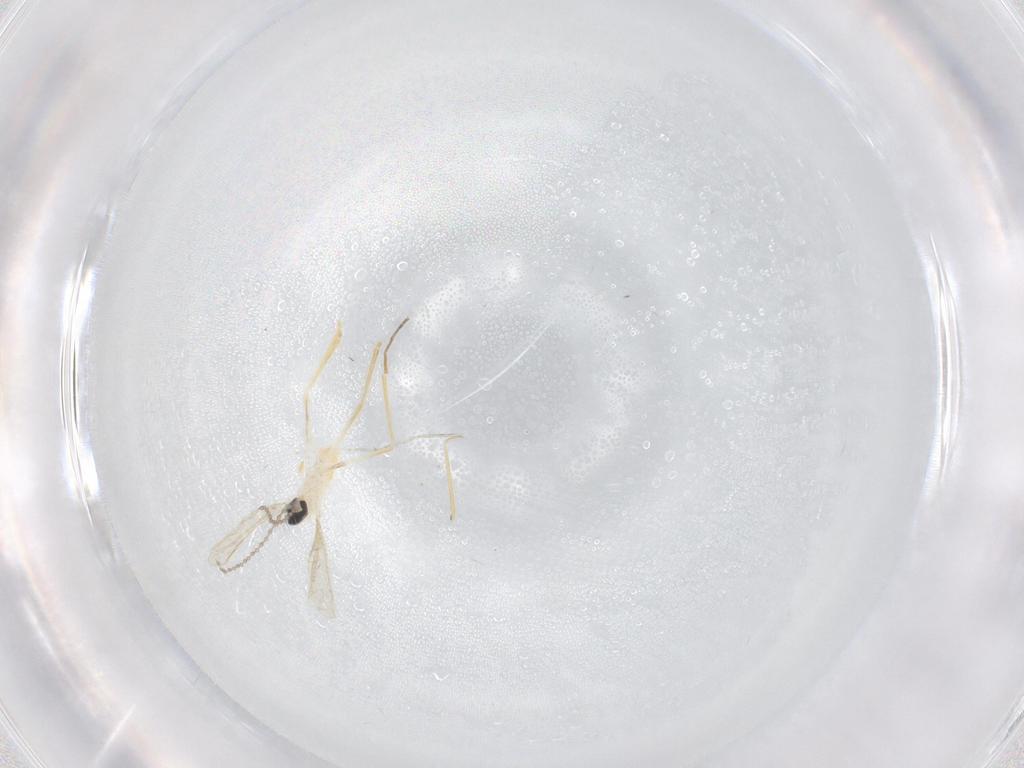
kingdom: Animalia
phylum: Arthropoda
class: Insecta
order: Diptera
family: Cecidomyiidae
